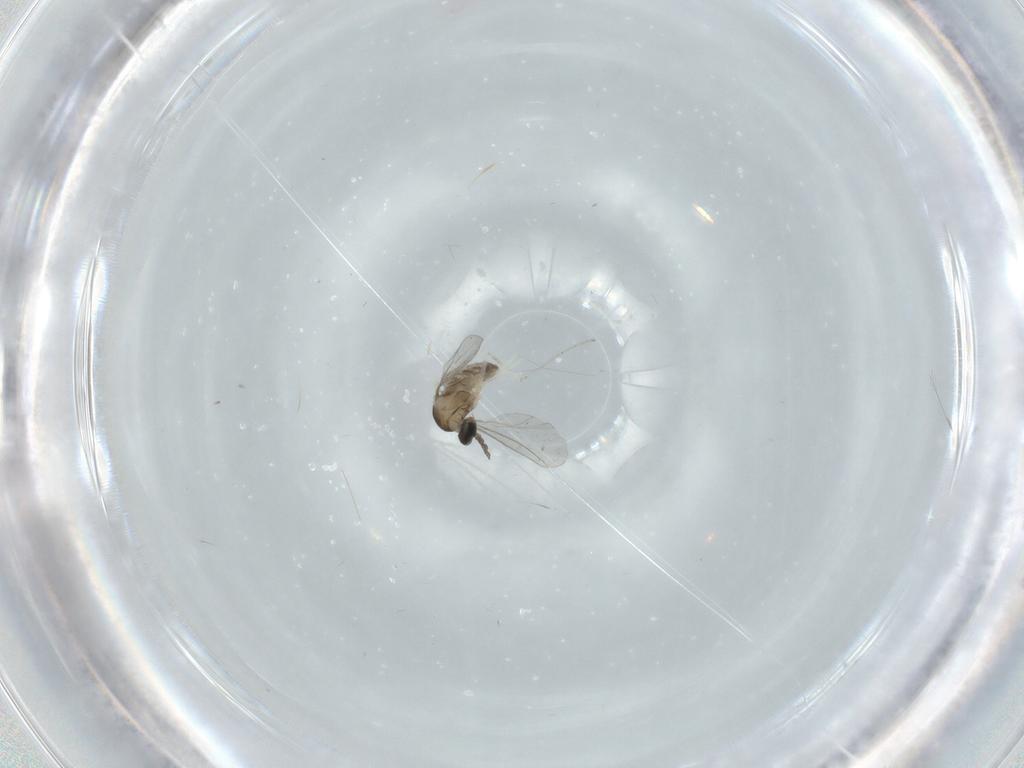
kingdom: Animalia
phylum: Arthropoda
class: Insecta
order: Diptera
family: Cecidomyiidae
